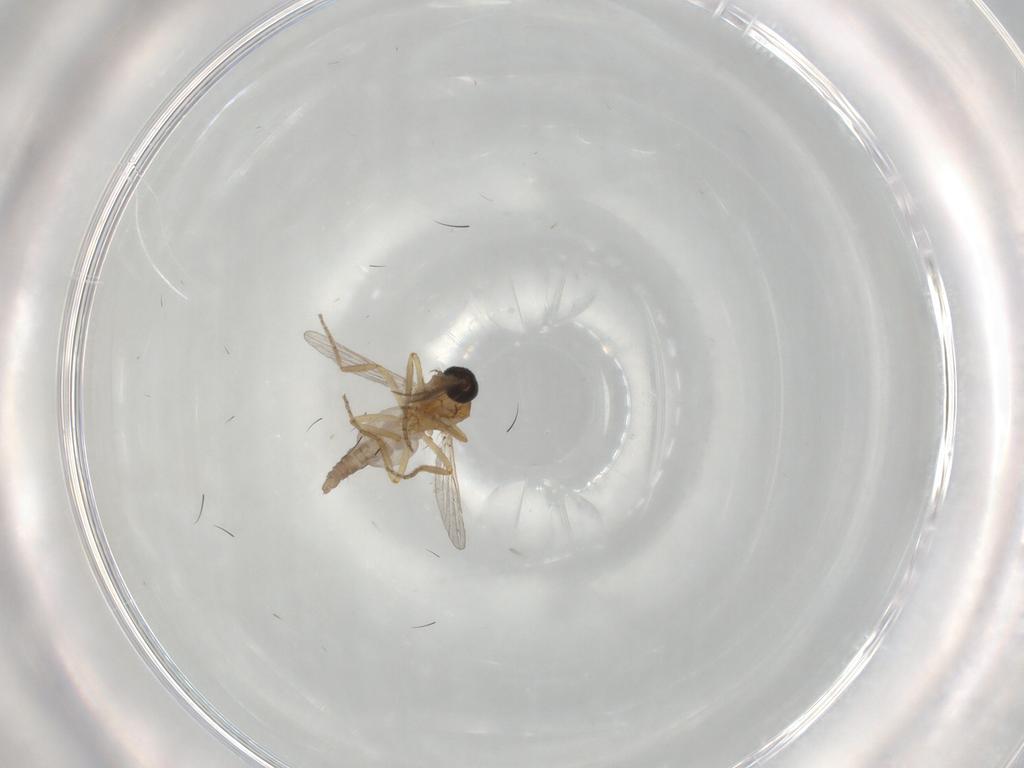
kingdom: Animalia
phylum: Arthropoda
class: Insecta
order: Diptera
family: Ceratopogonidae
